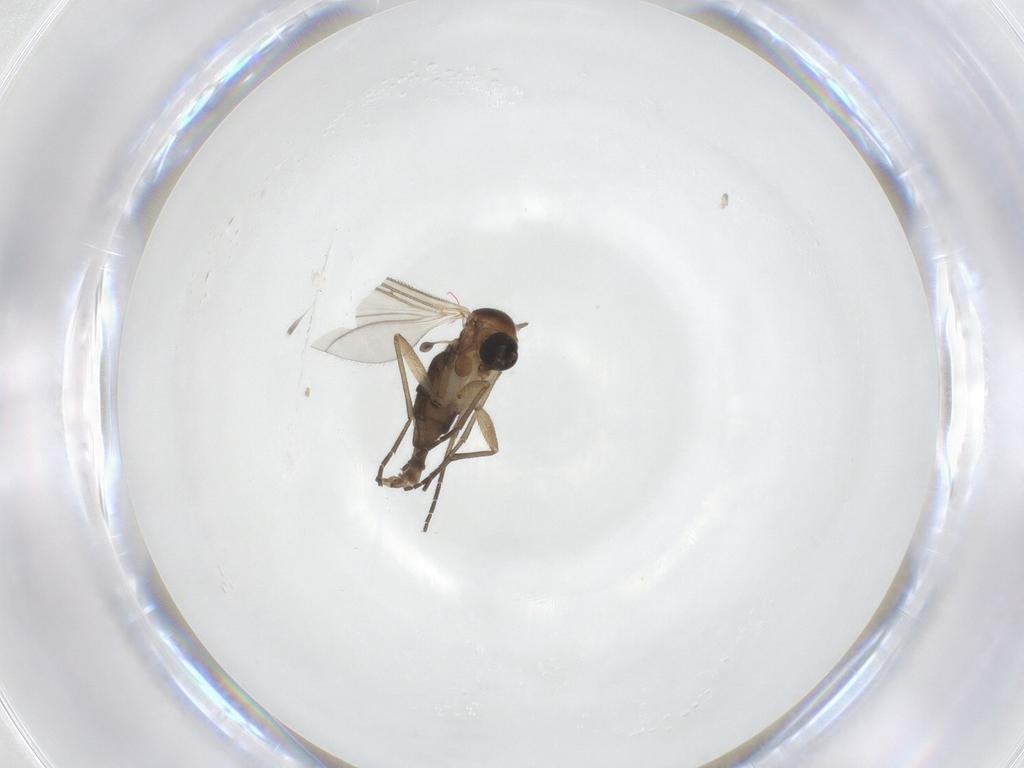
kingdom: Animalia
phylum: Arthropoda
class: Insecta
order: Diptera
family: Sciaridae
